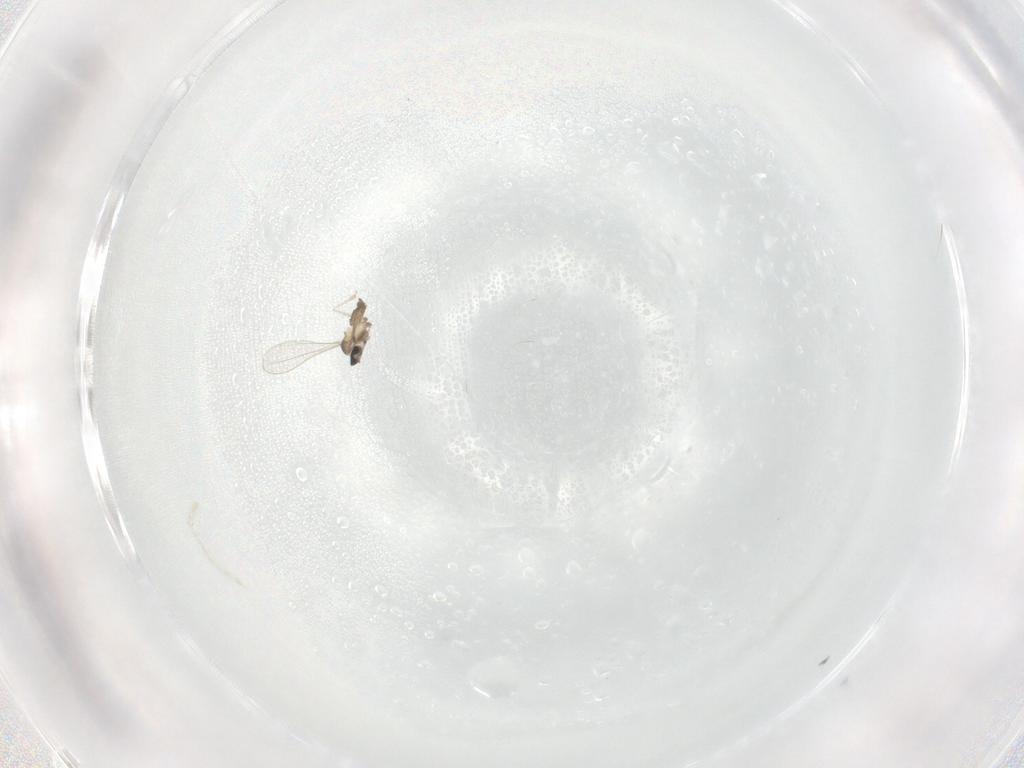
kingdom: Animalia
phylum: Arthropoda
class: Insecta
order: Diptera
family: Cecidomyiidae
